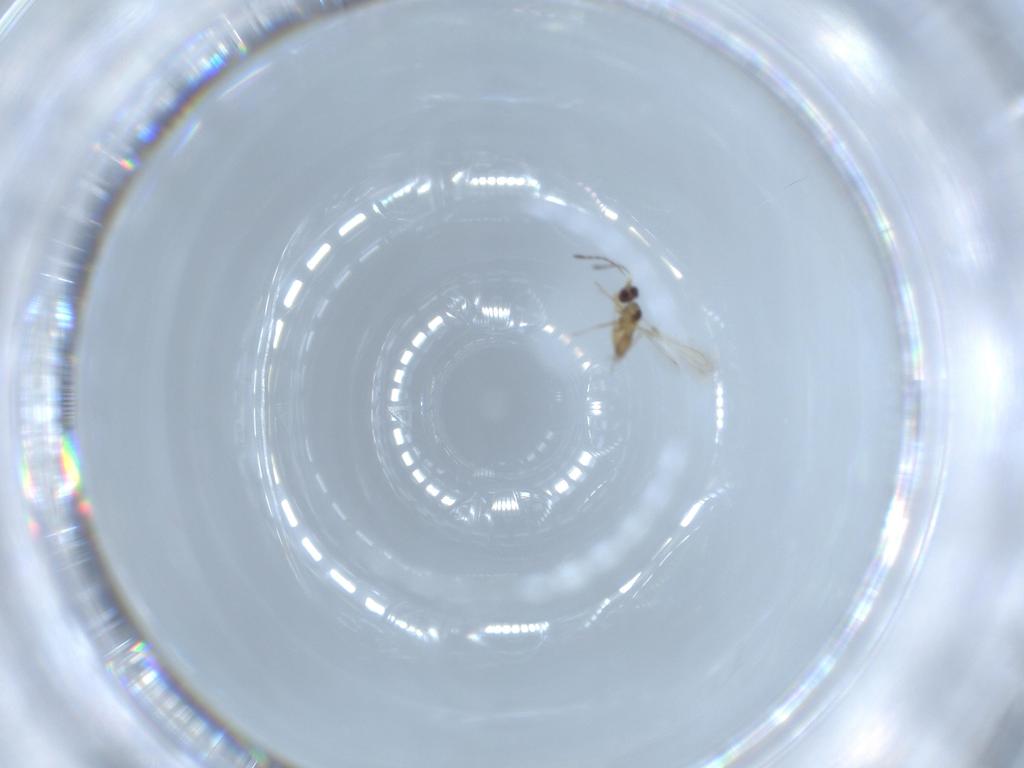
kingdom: Animalia
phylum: Arthropoda
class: Insecta
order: Hymenoptera
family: Mymaridae
